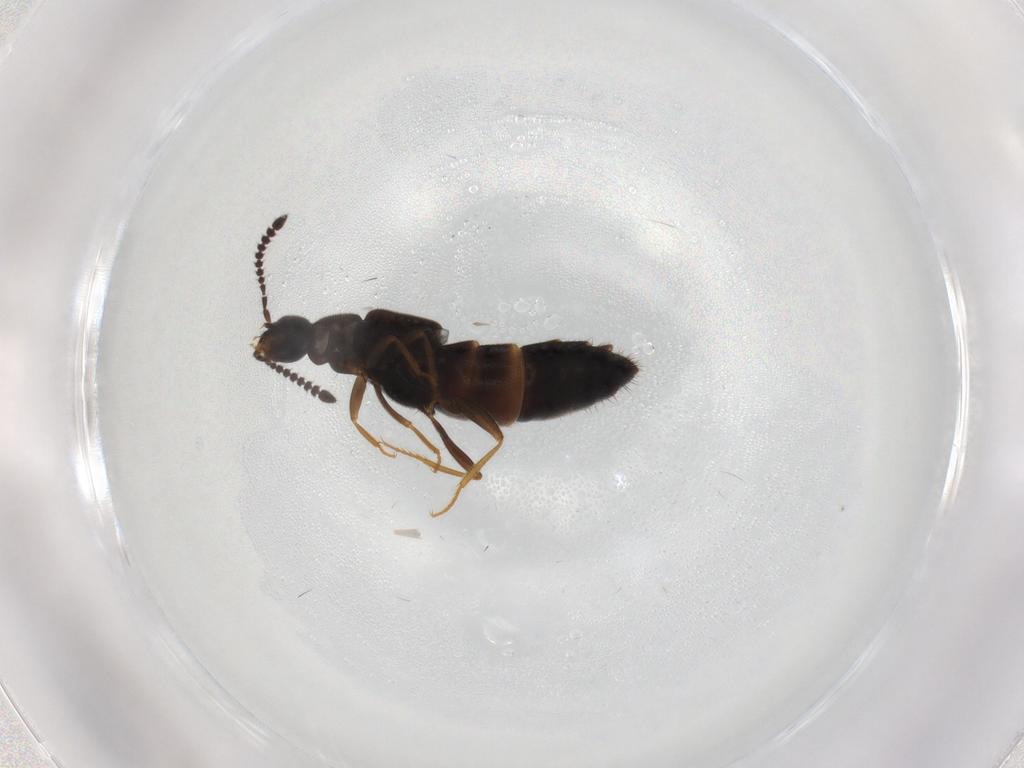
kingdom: Animalia
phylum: Arthropoda
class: Insecta
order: Coleoptera
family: Staphylinidae
